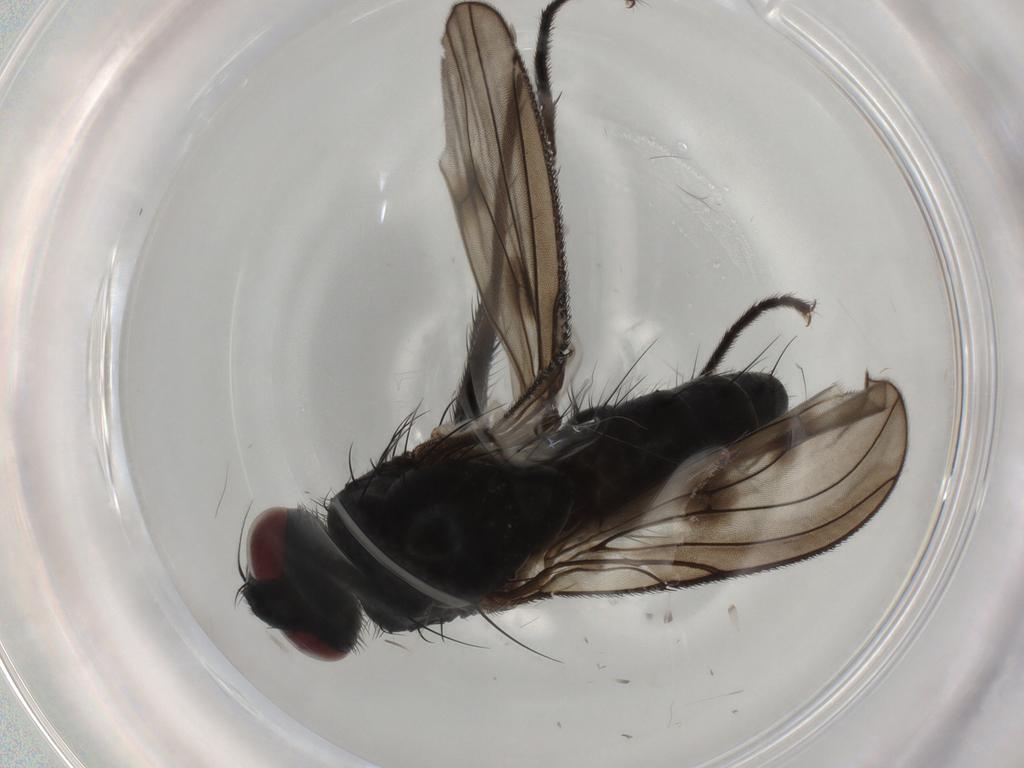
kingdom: Animalia
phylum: Arthropoda
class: Insecta
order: Diptera
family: Muscidae
